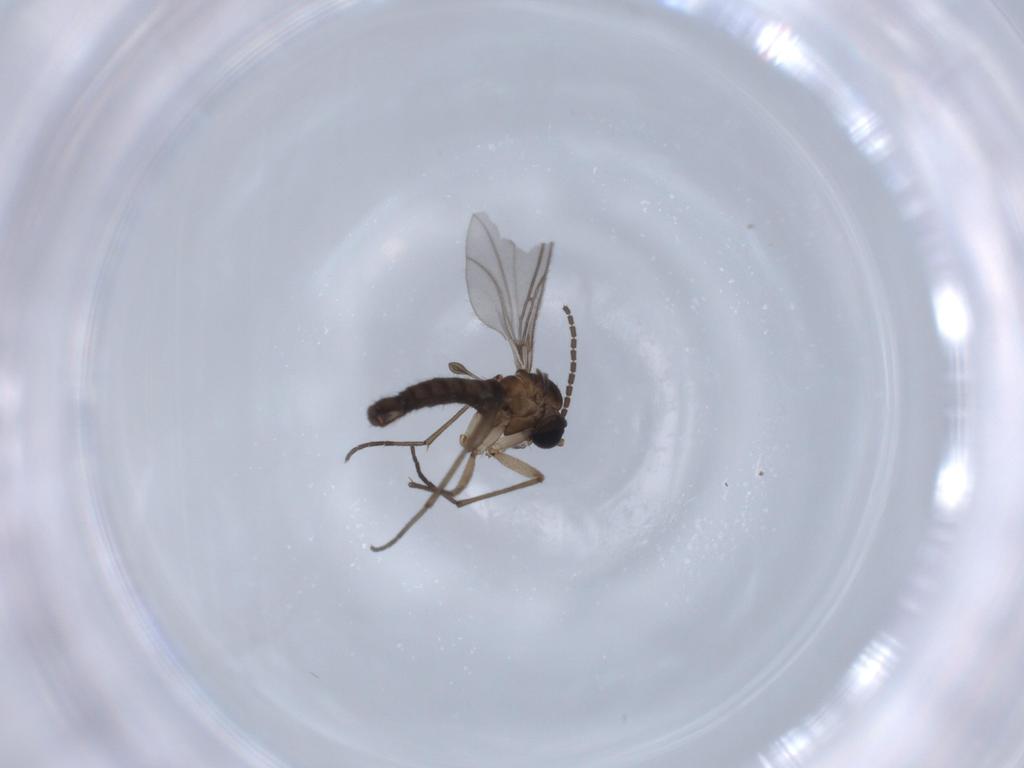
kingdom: Animalia
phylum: Arthropoda
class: Insecta
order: Diptera
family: Sciaridae
